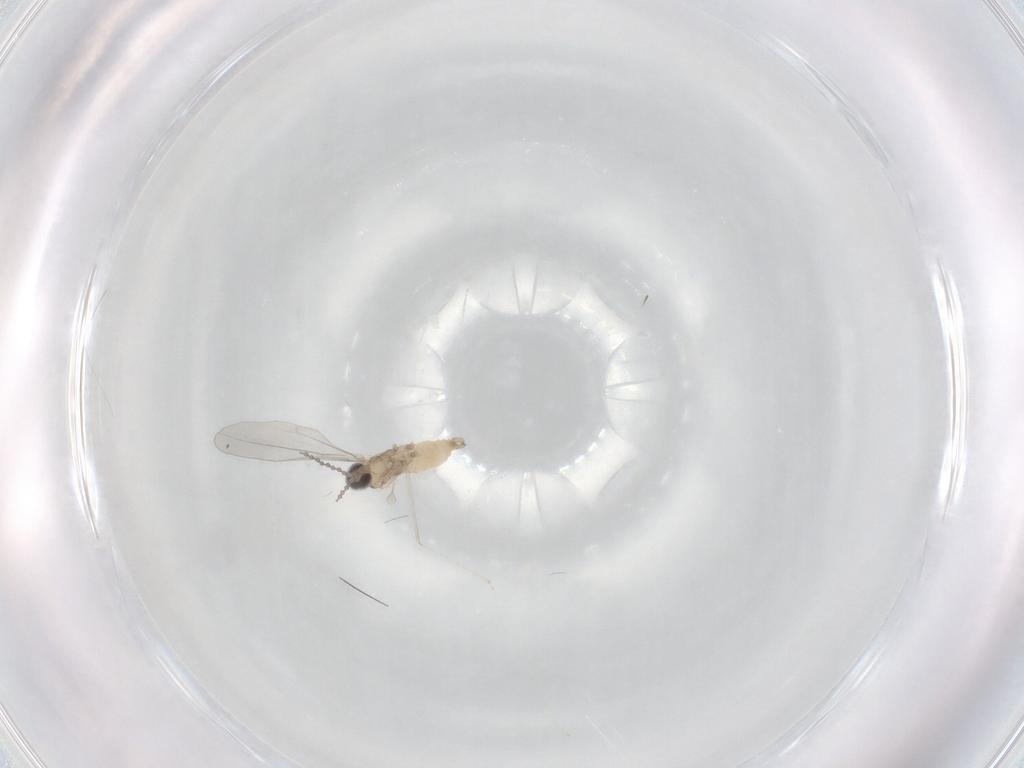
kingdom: Animalia
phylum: Arthropoda
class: Insecta
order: Diptera
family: Cecidomyiidae
